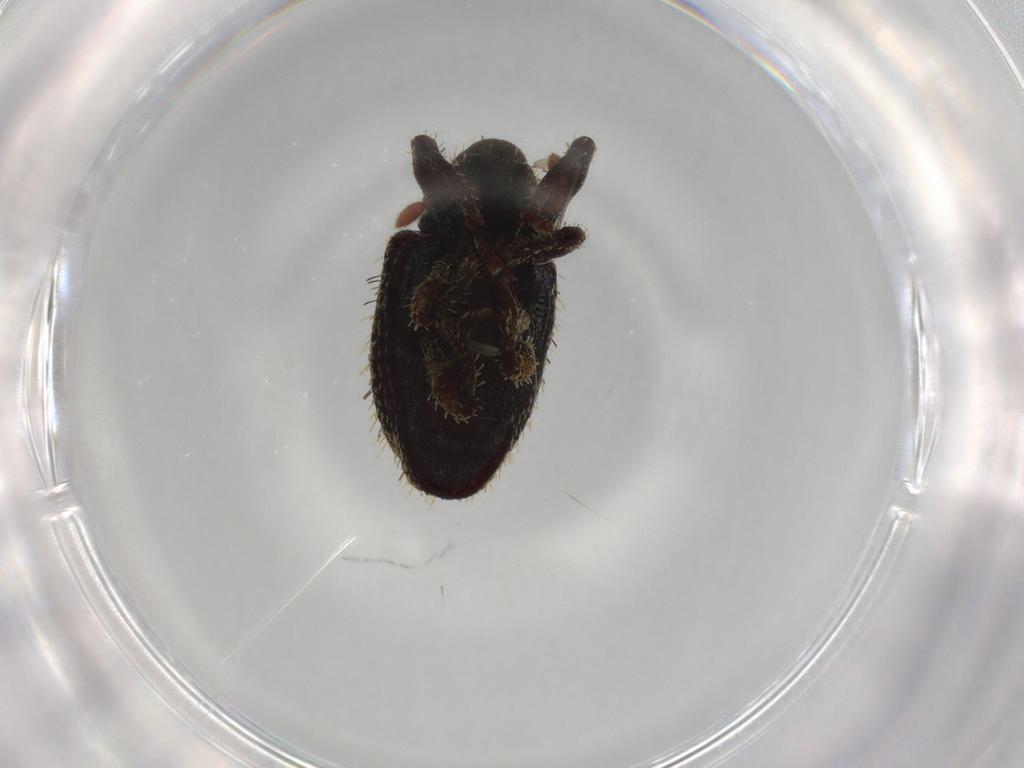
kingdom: Animalia
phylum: Arthropoda
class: Insecta
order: Coleoptera
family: Curculionidae
